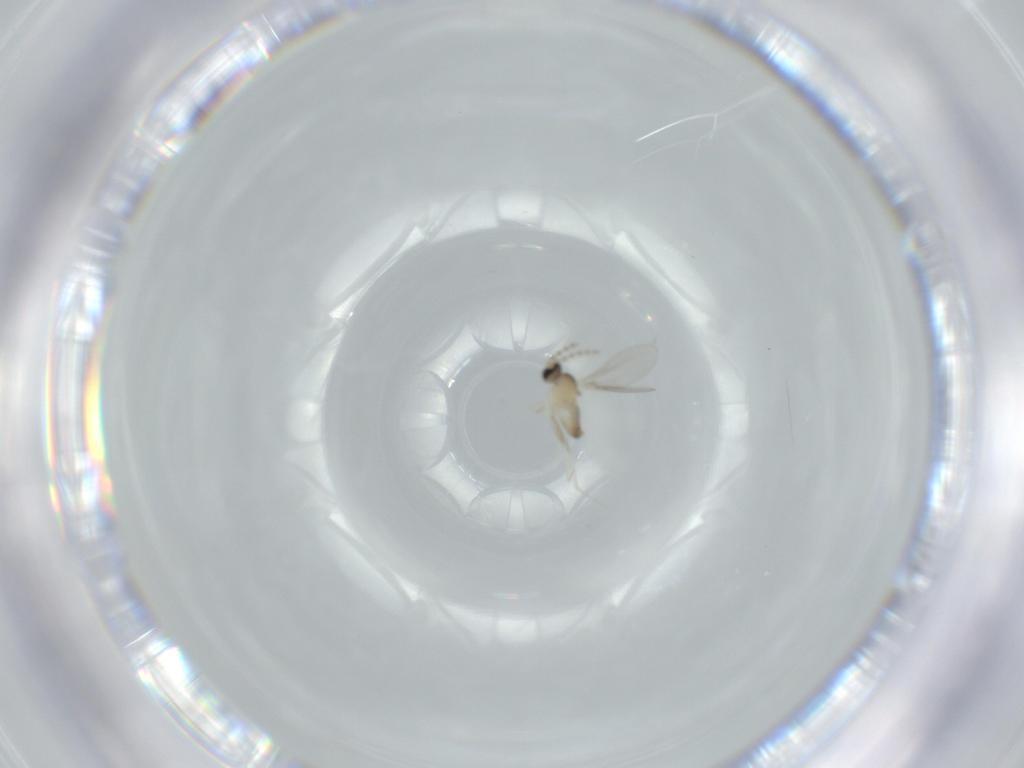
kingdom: Animalia
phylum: Arthropoda
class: Insecta
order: Diptera
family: Cecidomyiidae
